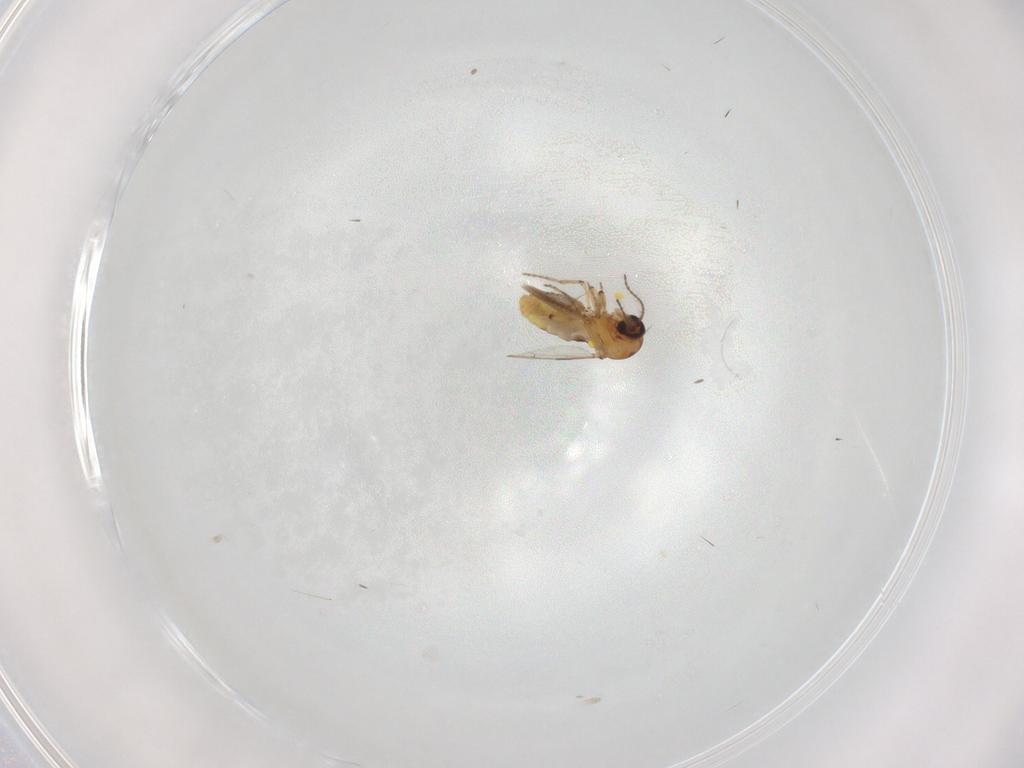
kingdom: Animalia
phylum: Arthropoda
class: Insecta
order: Diptera
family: Ceratopogonidae
